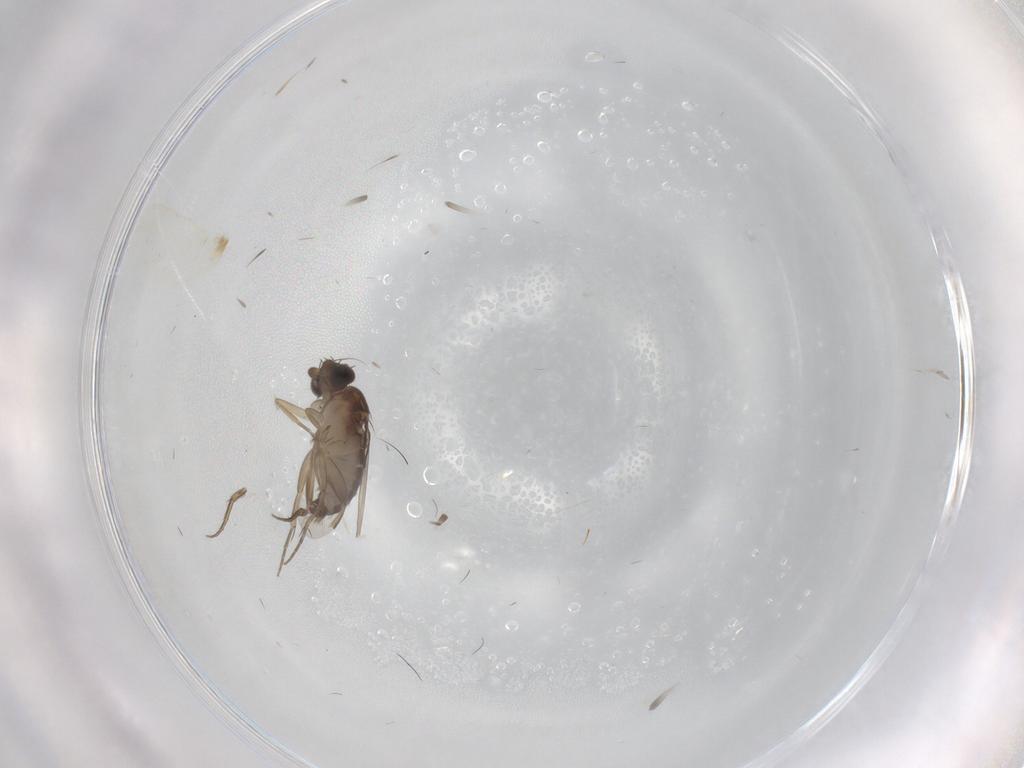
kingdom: Animalia
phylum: Arthropoda
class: Insecta
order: Diptera
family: Phoridae
